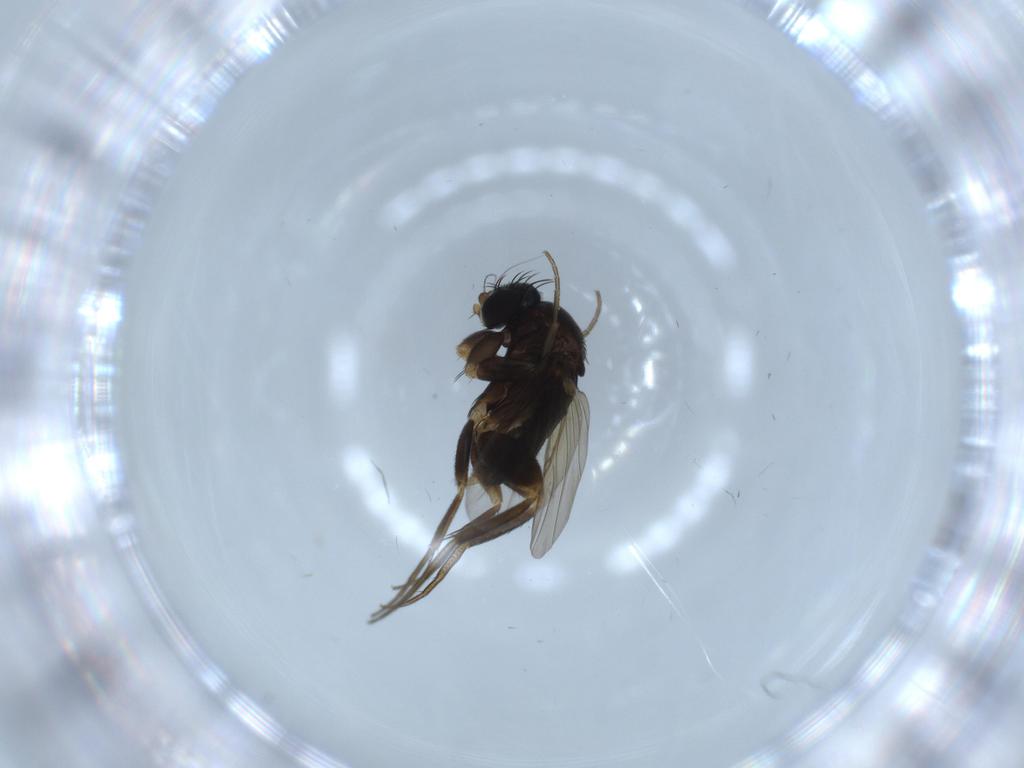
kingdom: Animalia
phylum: Arthropoda
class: Insecta
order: Diptera
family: Phoridae
